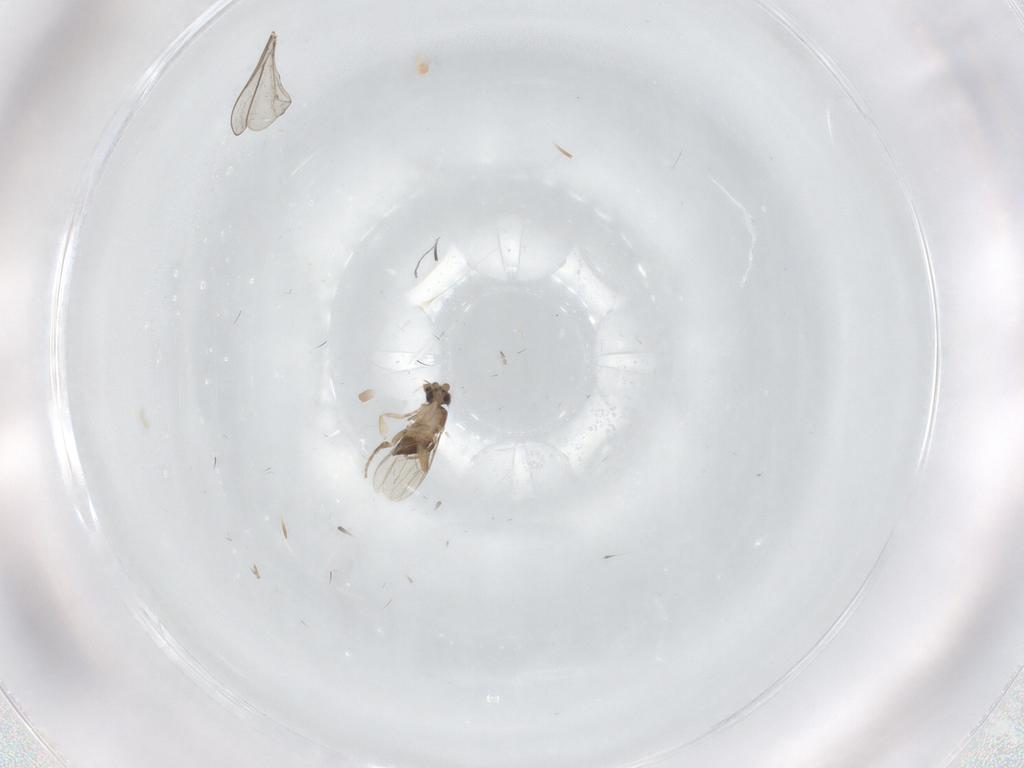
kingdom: Animalia
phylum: Arthropoda
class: Insecta
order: Diptera
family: Phoridae
